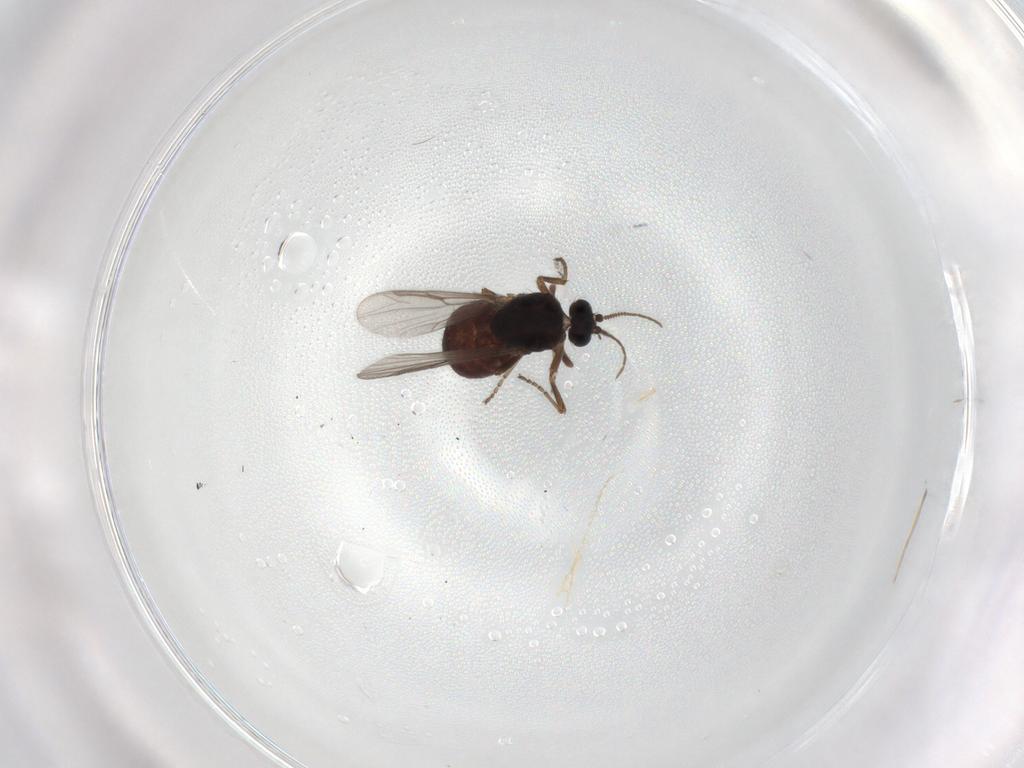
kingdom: Animalia
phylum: Arthropoda
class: Insecta
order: Diptera
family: Ceratopogonidae
